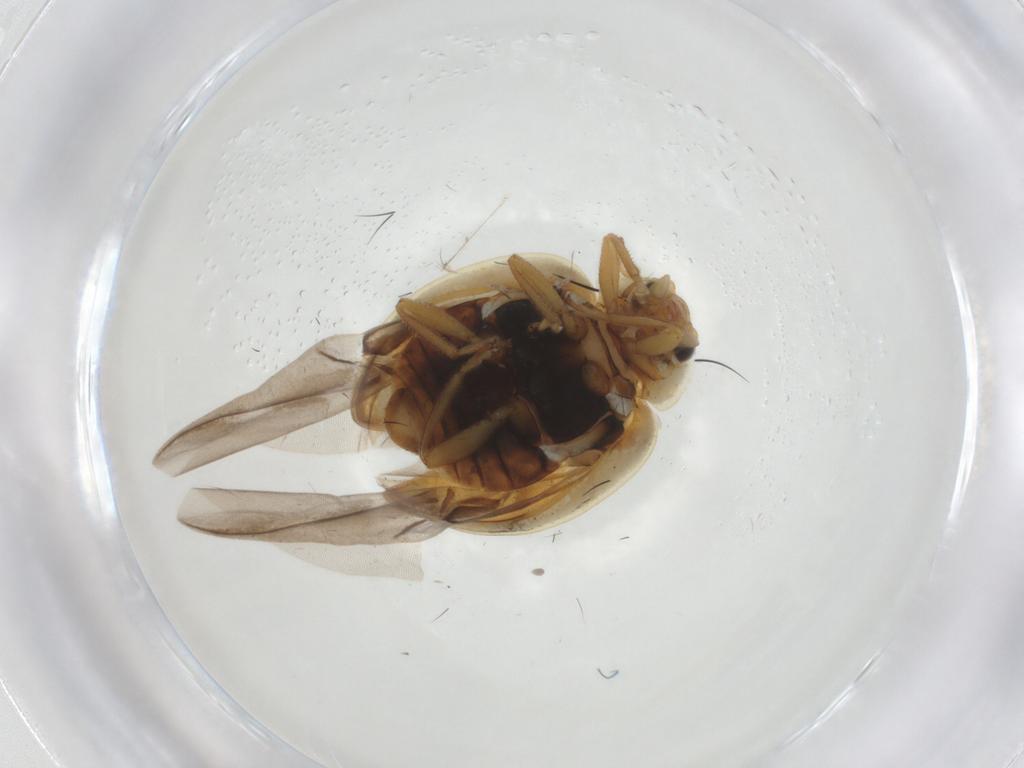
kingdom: Animalia
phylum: Arthropoda
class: Insecta
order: Coleoptera
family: Coccinellidae
